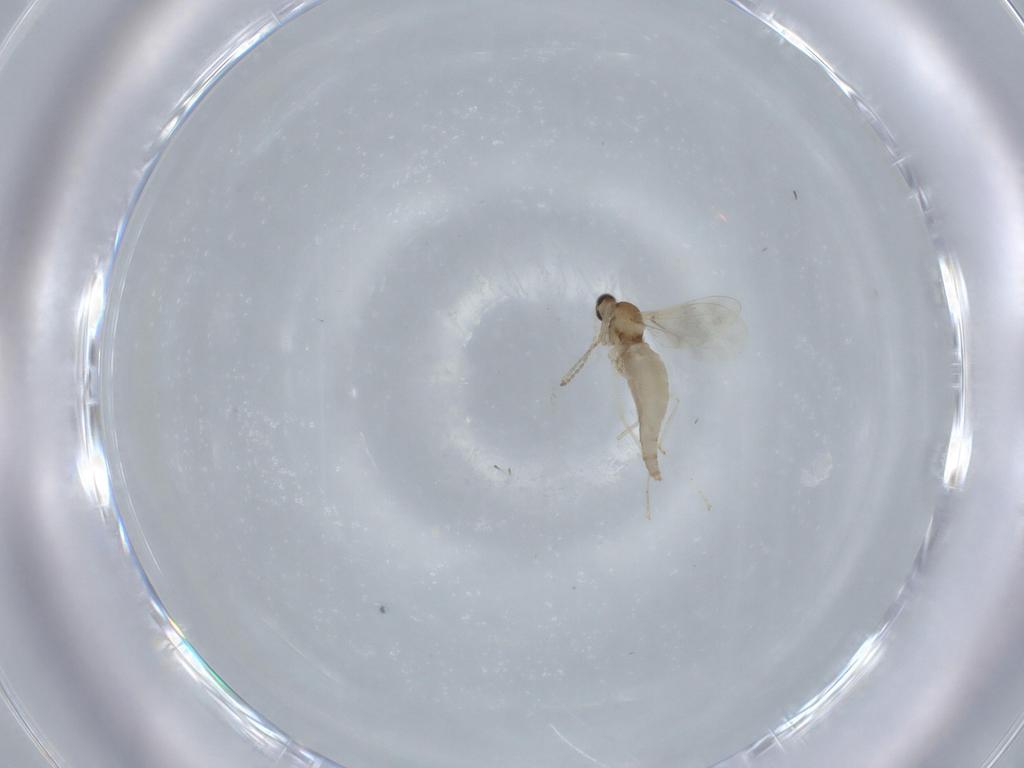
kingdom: Animalia
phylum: Arthropoda
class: Insecta
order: Diptera
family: Cecidomyiidae
